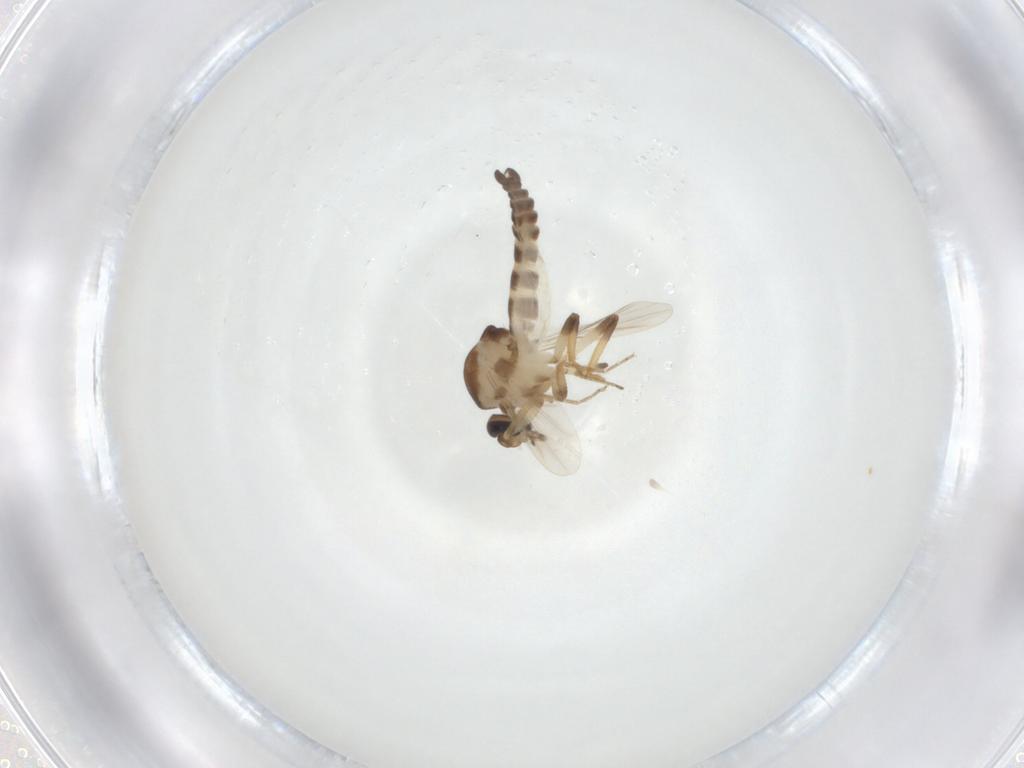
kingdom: Animalia
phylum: Arthropoda
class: Insecta
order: Diptera
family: Ceratopogonidae
